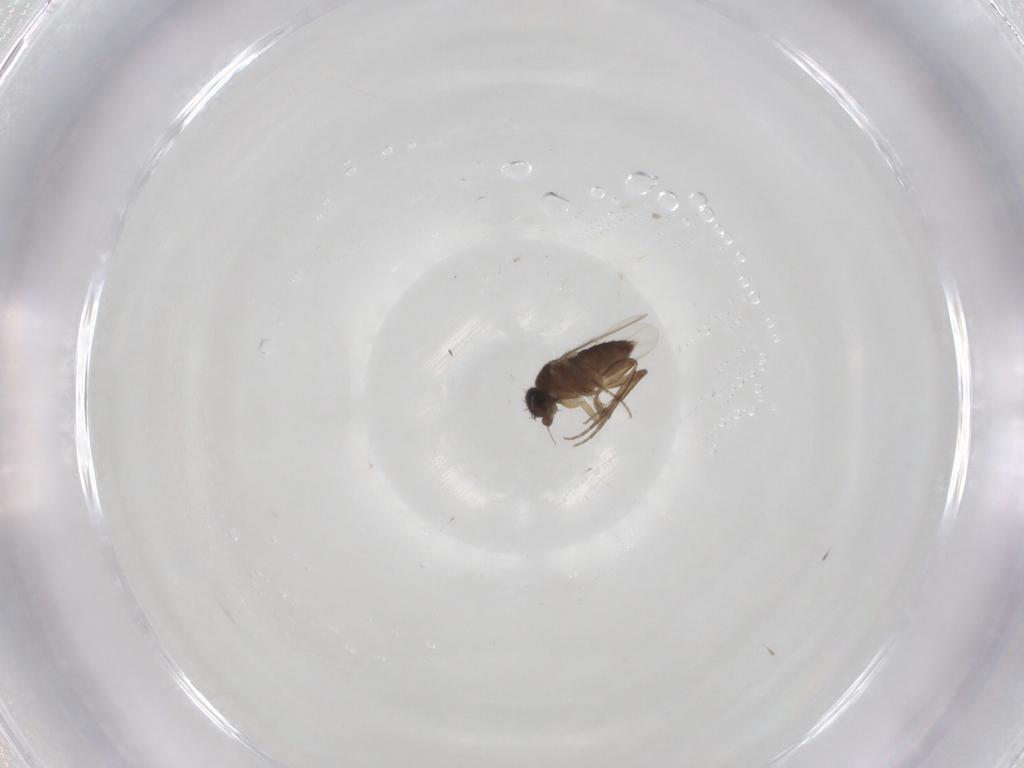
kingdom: Animalia
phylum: Arthropoda
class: Insecta
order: Diptera
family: Phoridae
